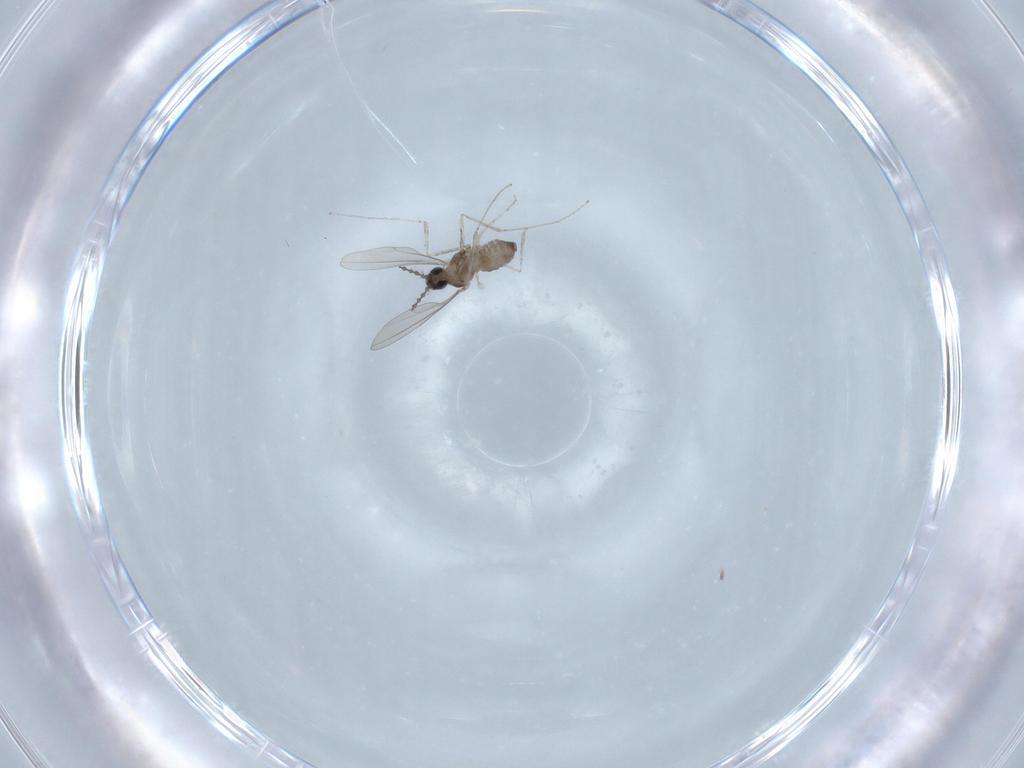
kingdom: Animalia
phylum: Arthropoda
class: Insecta
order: Diptera
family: Cecidomyiidae
